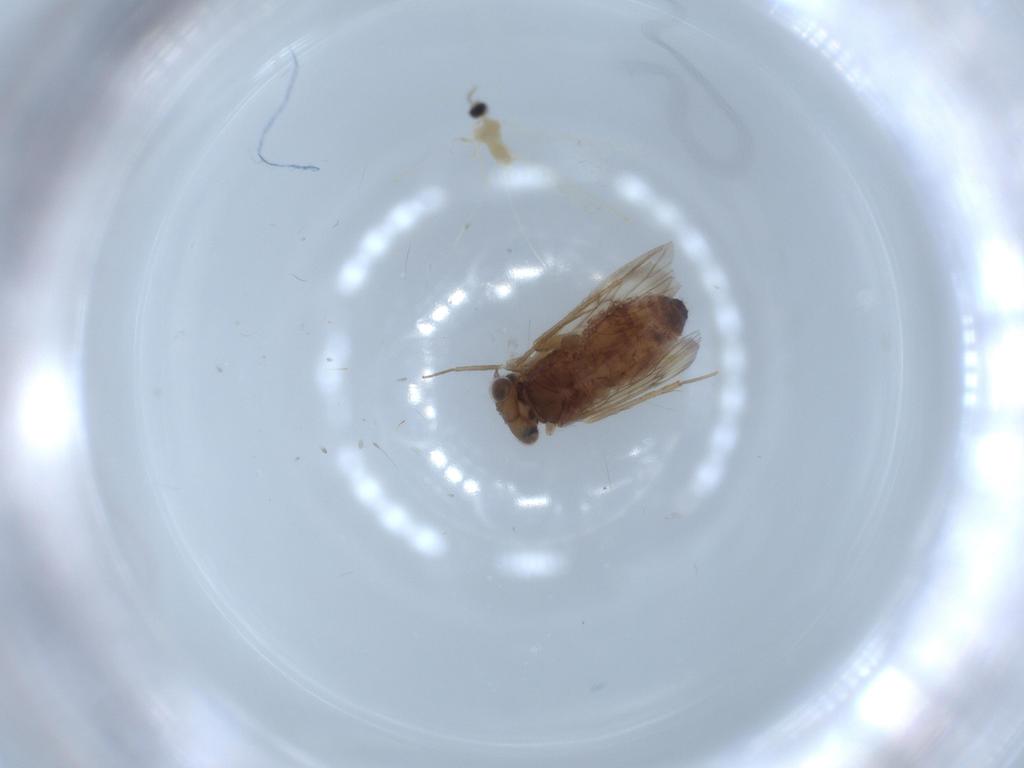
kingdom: Animalia
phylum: Arthropoda
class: Insecta
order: Psocodea
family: Lepidopsocidae
